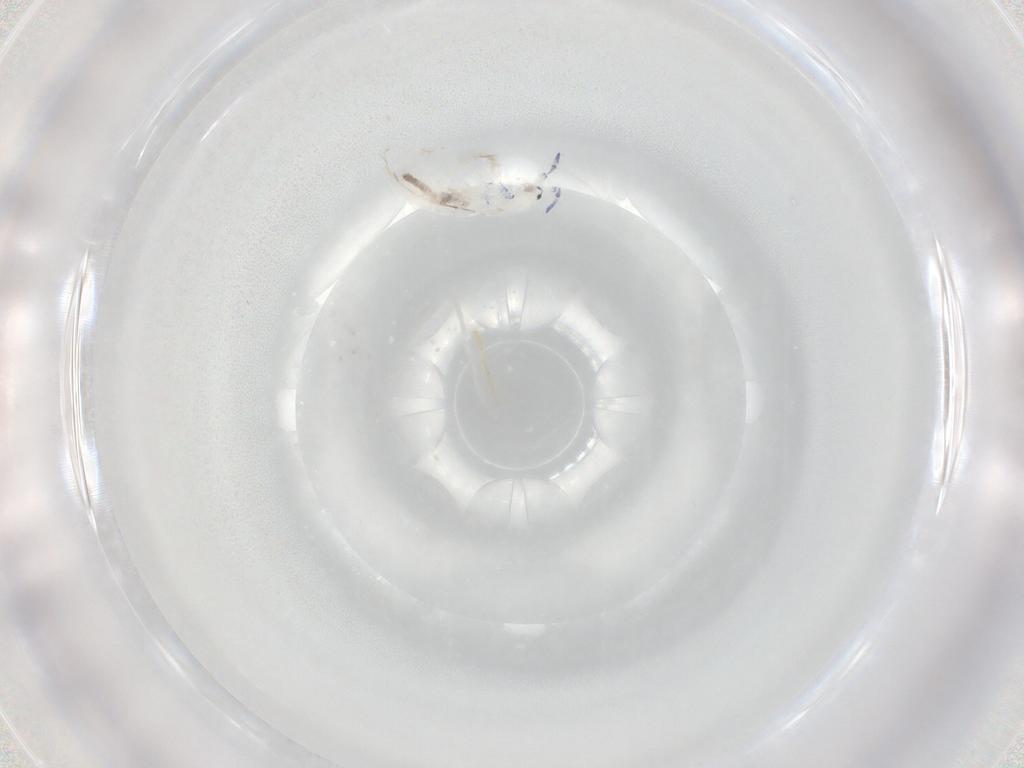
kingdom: Animalia
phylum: Arthropoda
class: Collembola
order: Entomobryomorpha
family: Entomobryidae
